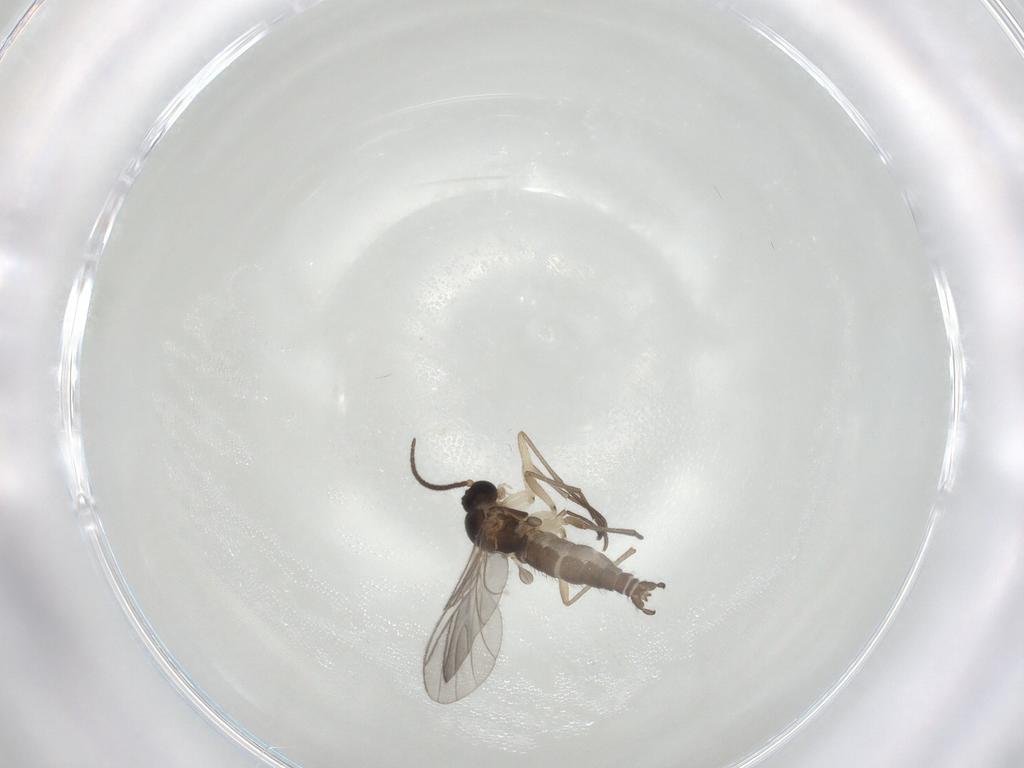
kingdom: Animalia
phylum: Arthropoda
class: Insecta
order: Diptera
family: Sciaridae
